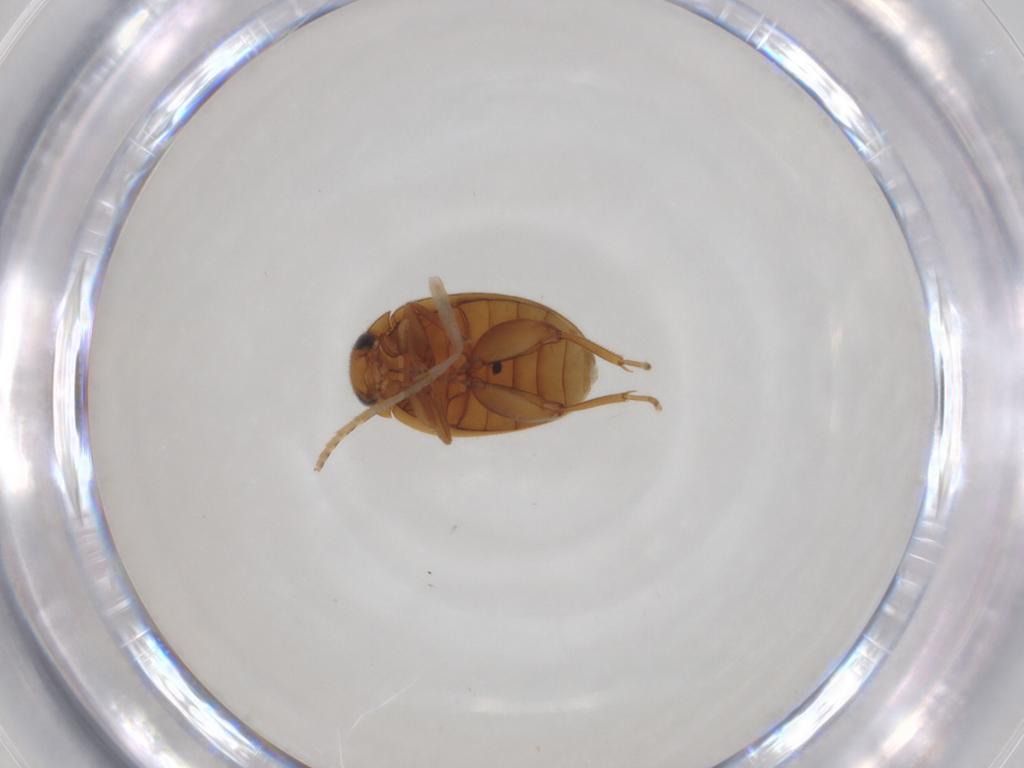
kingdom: Animalia
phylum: Arthropoda
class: Insecta
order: Coleoptera
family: Scirtidae
